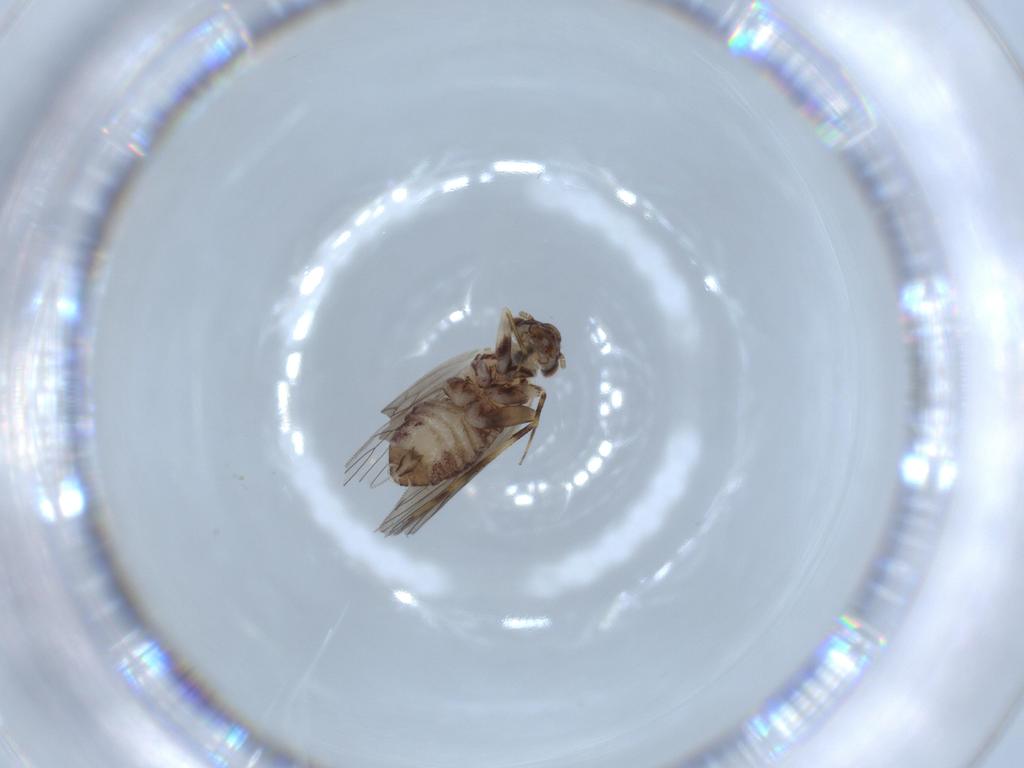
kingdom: Animalia
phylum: Arthropoda
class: Insecta
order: Psocodea
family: Lepidopsocidae
